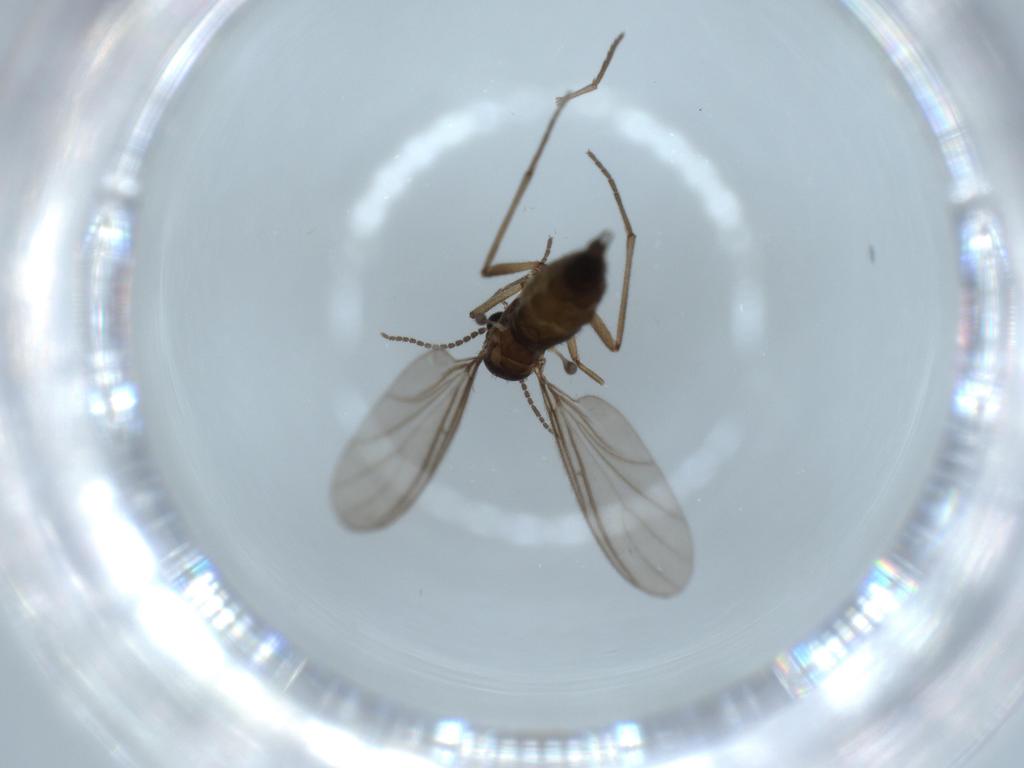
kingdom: Animalia
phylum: Arthropoda
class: Insecta
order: Diptera
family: Sciaridae
